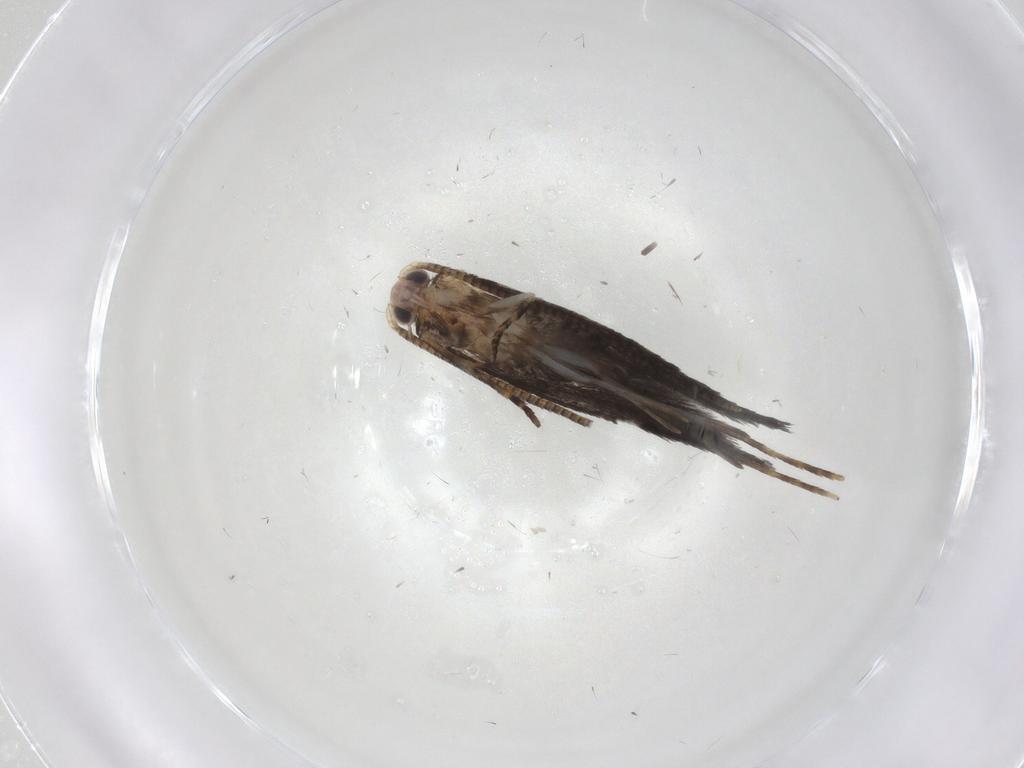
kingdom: Animalia
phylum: Arthropoda
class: Insecta
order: Lepidoptera
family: Tineidae
